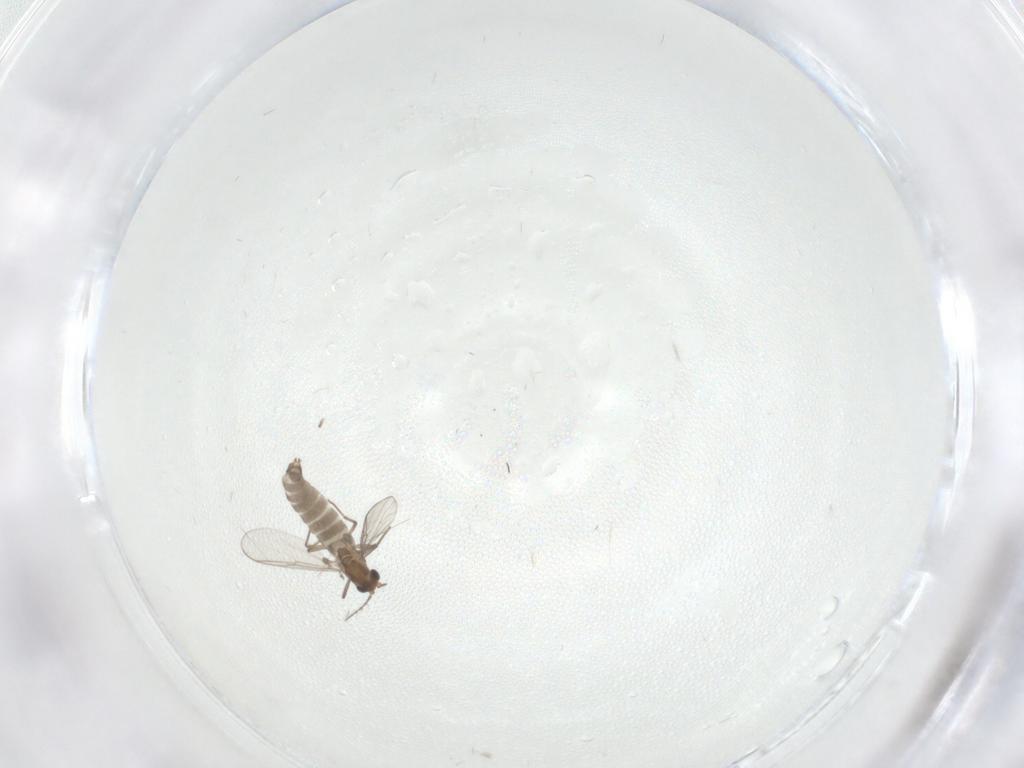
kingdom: Animalia
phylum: Arthropoda
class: Insecta
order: Diptera
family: Chironomidae
